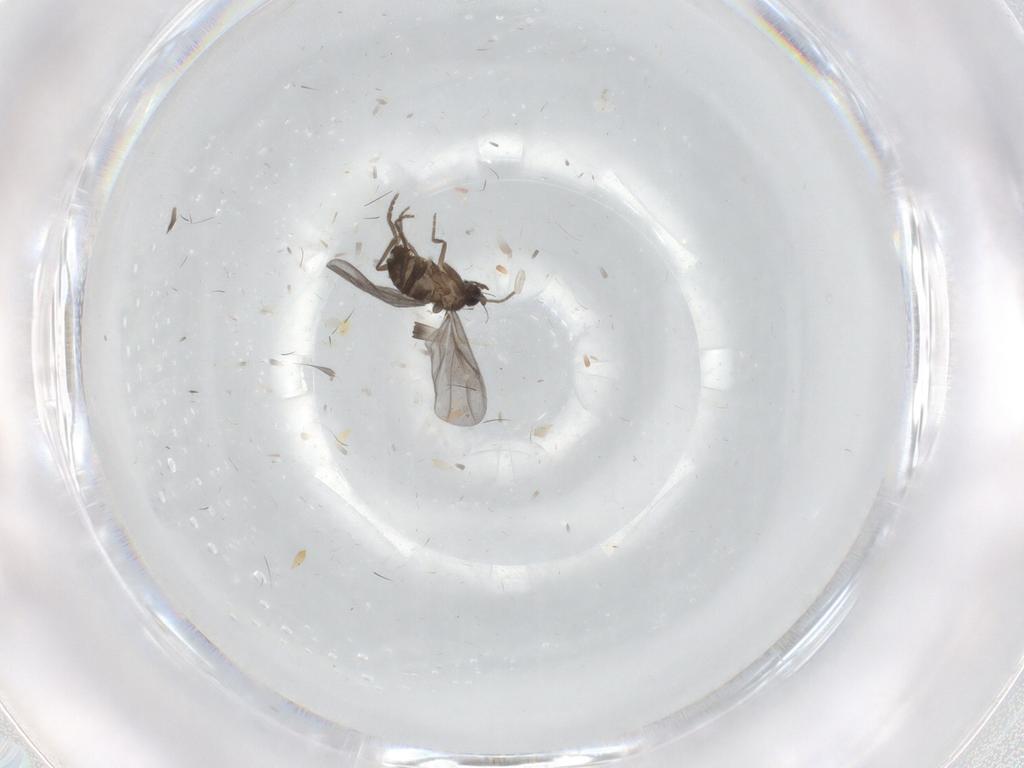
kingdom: Animalia
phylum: Arthropoda
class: Insecta
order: Diptera
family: Phoridae
